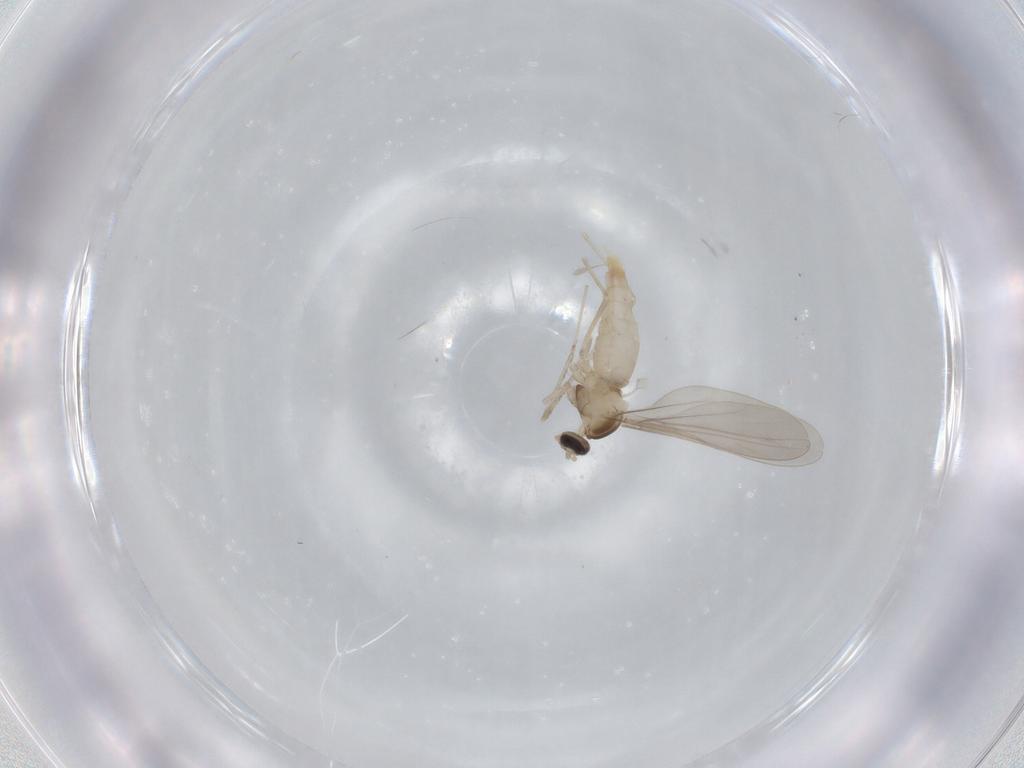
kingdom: Animalia
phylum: Arthropoda
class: Insecta
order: Diptera
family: Cecidomyiidae
